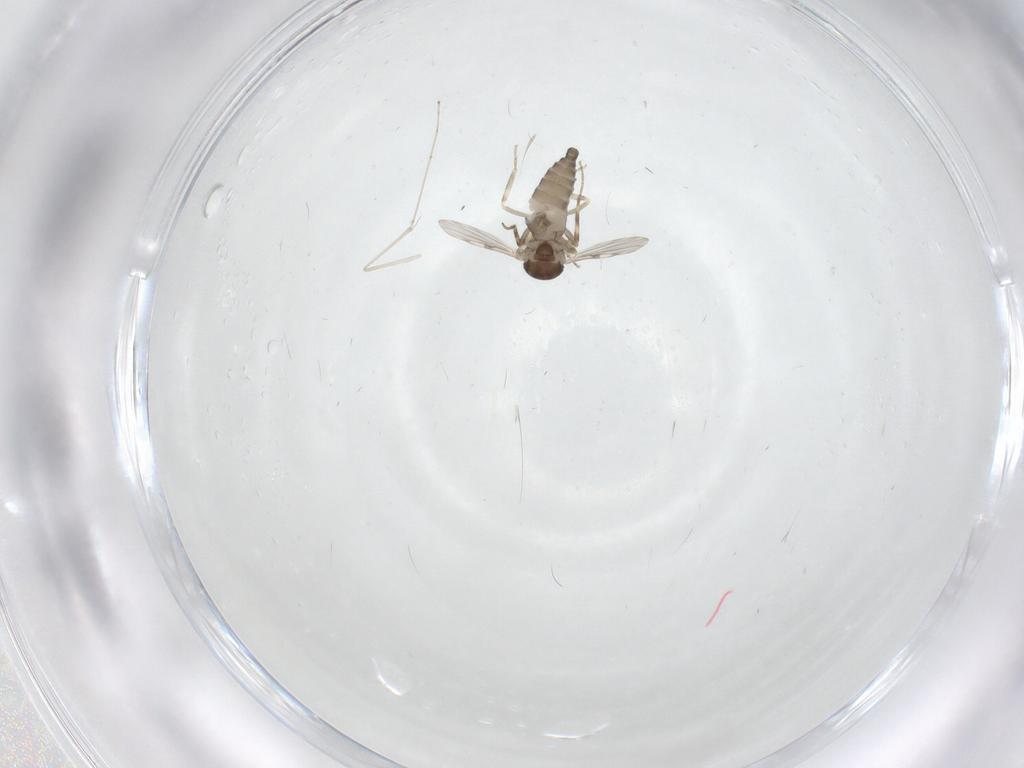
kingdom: Animalia
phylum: Arthropoda
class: Insecta
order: Diptera
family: Ceratopogonidae
